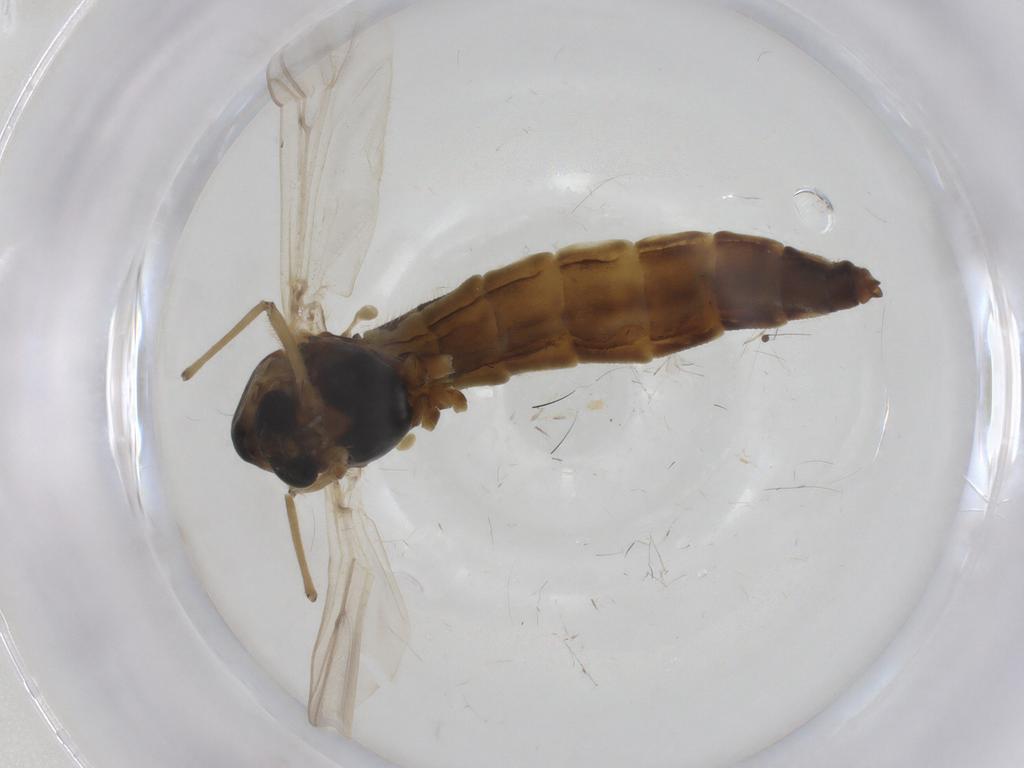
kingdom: Animalia
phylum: Arthropoda
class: Insecta
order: Diptera
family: Chironomidae
